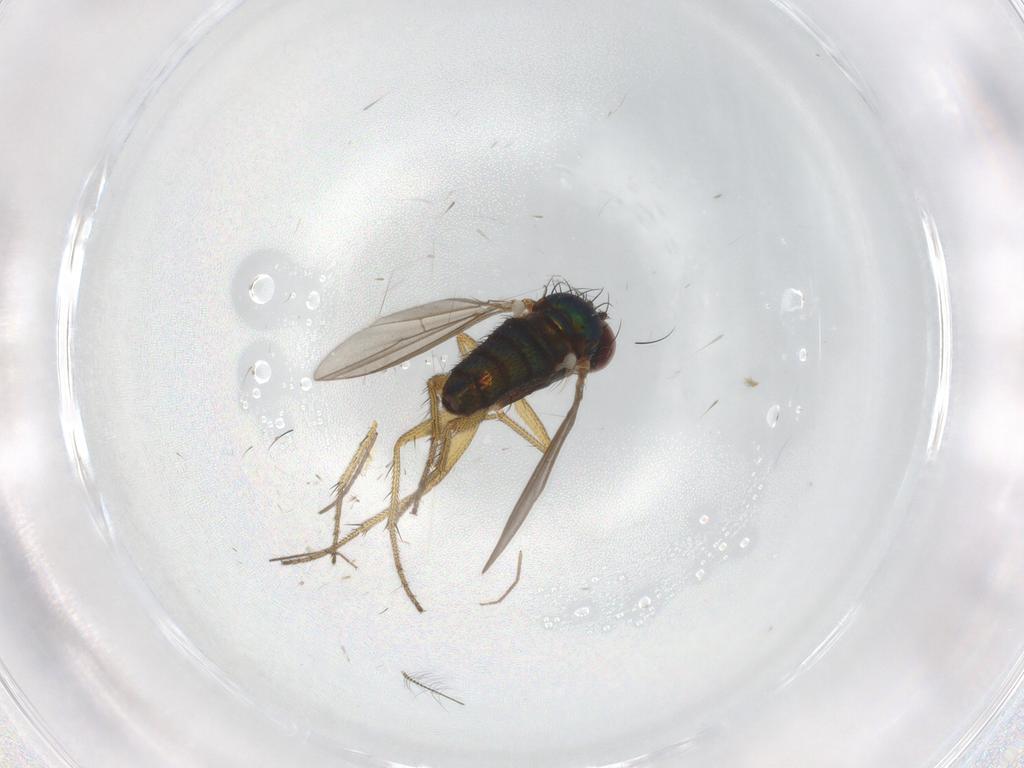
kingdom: Animalia
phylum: Arthropoda
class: Insecta
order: Diptera
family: Chironomidae
